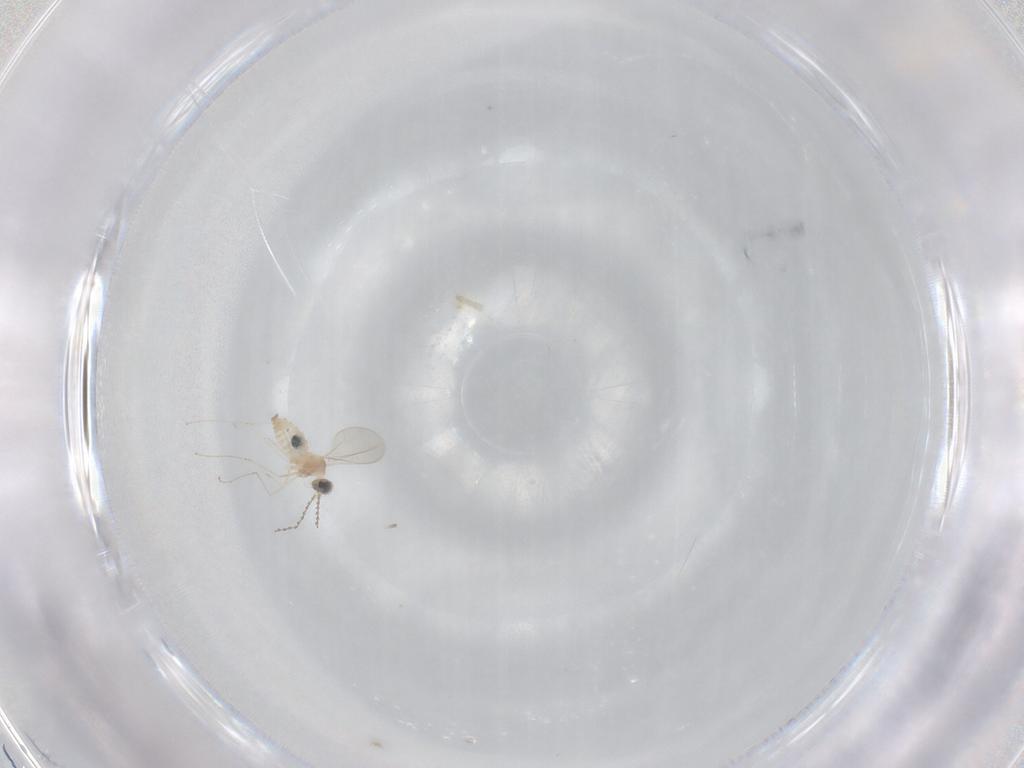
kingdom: Animalia
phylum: Arthropoda
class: Insecta
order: Diptera
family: Cecidomyiidae
